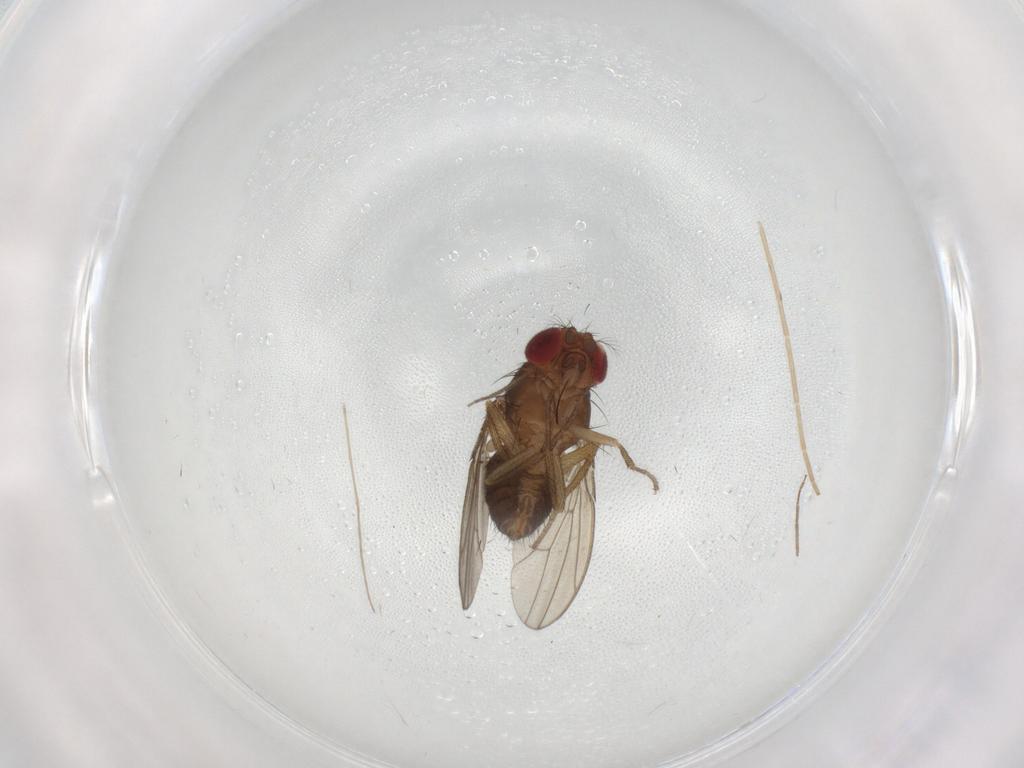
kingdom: Animalia
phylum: Arthropoda
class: Insecta
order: Diptera
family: Drosophilidae
